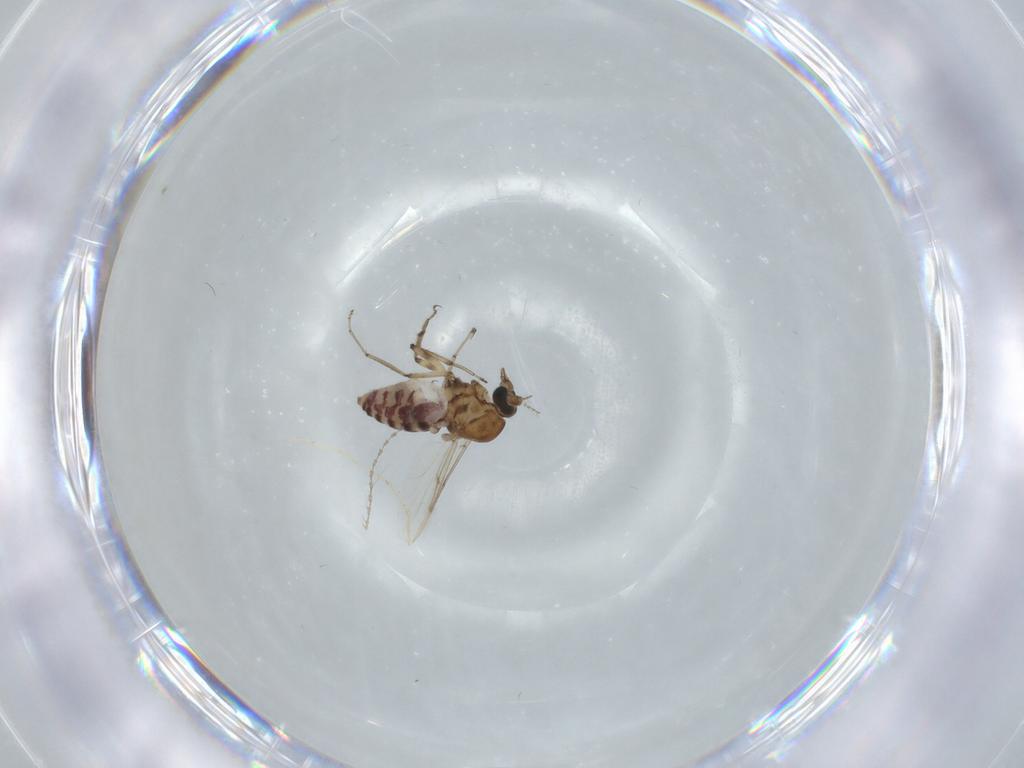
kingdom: Animalia
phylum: Arthropoda
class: Insecta
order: Diptera
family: Ceratopogonidae
